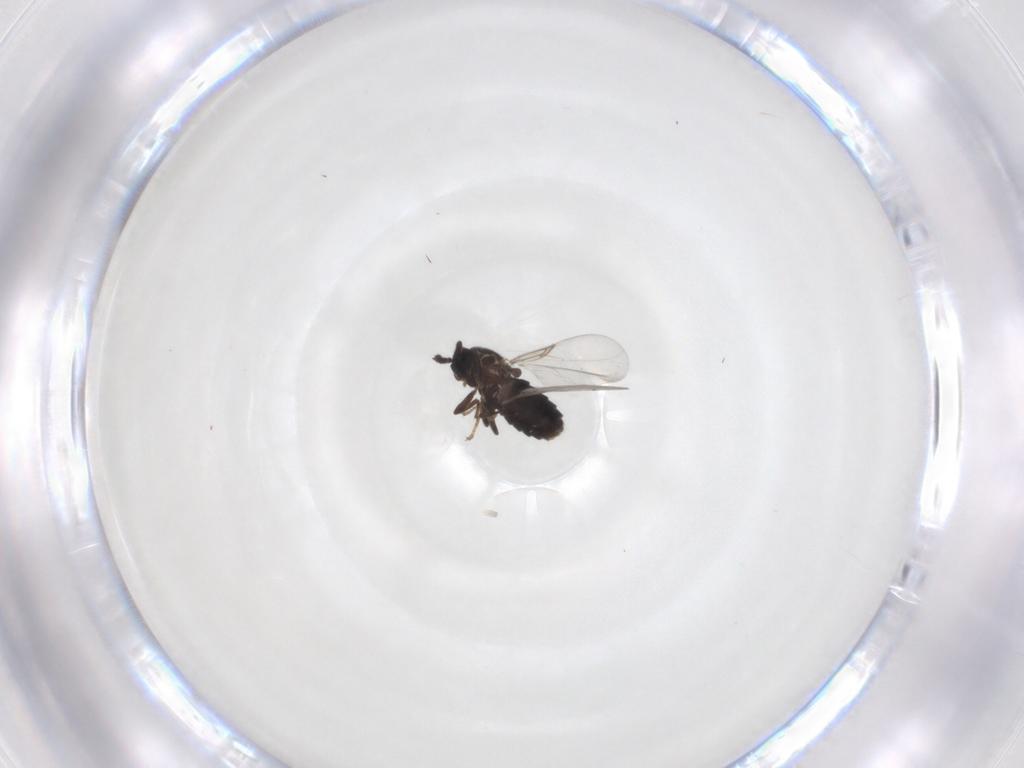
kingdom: Animalia
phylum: Arthropoda
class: Insecta
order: Diptera
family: Scatopsidae
